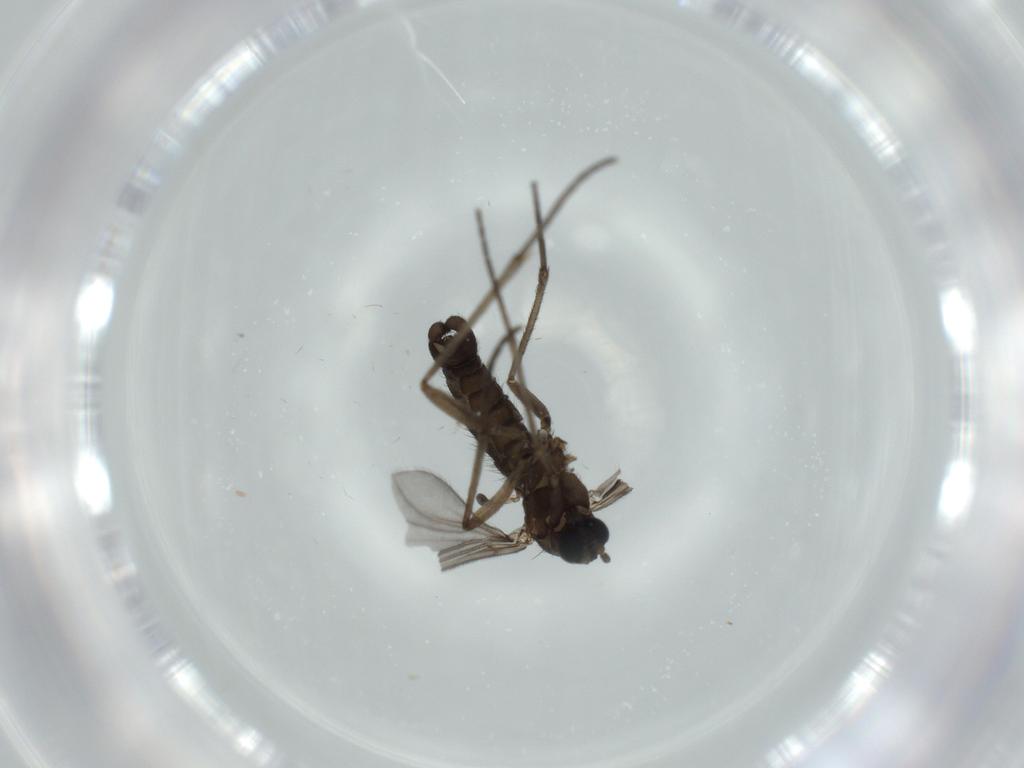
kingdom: Animalia
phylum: Arthropoda
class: Insecta
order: Diptera
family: Sciaridae
